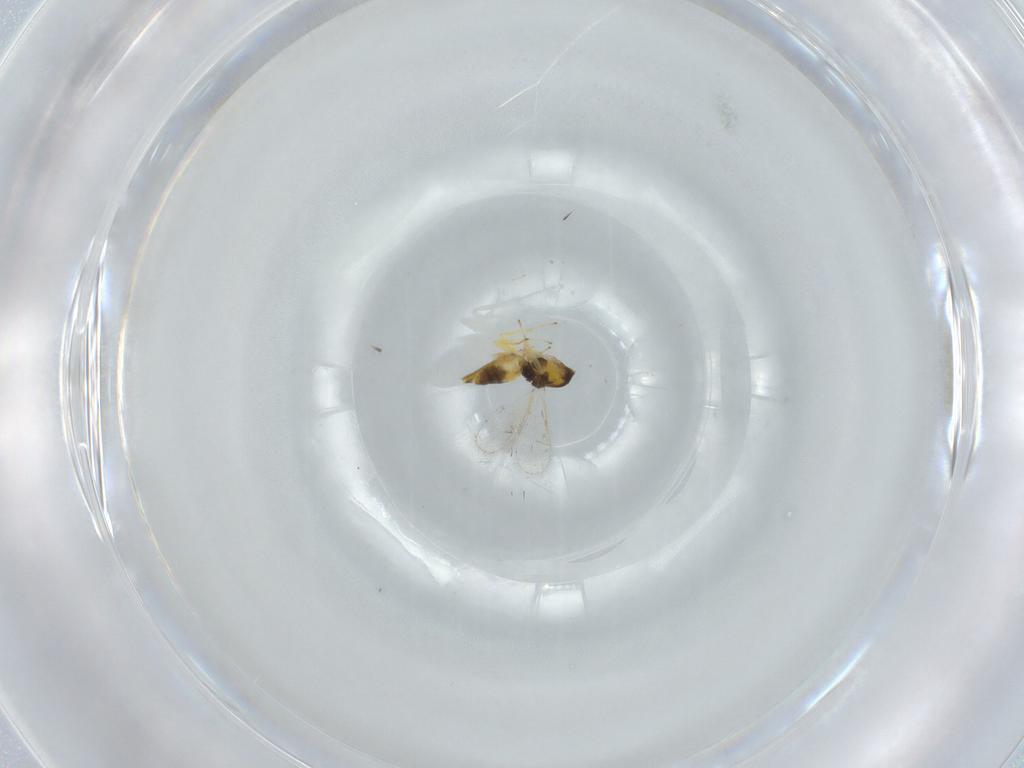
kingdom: Animalia
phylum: Arthropoda
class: Insecta
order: Hymenoptera
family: Eulophidae
